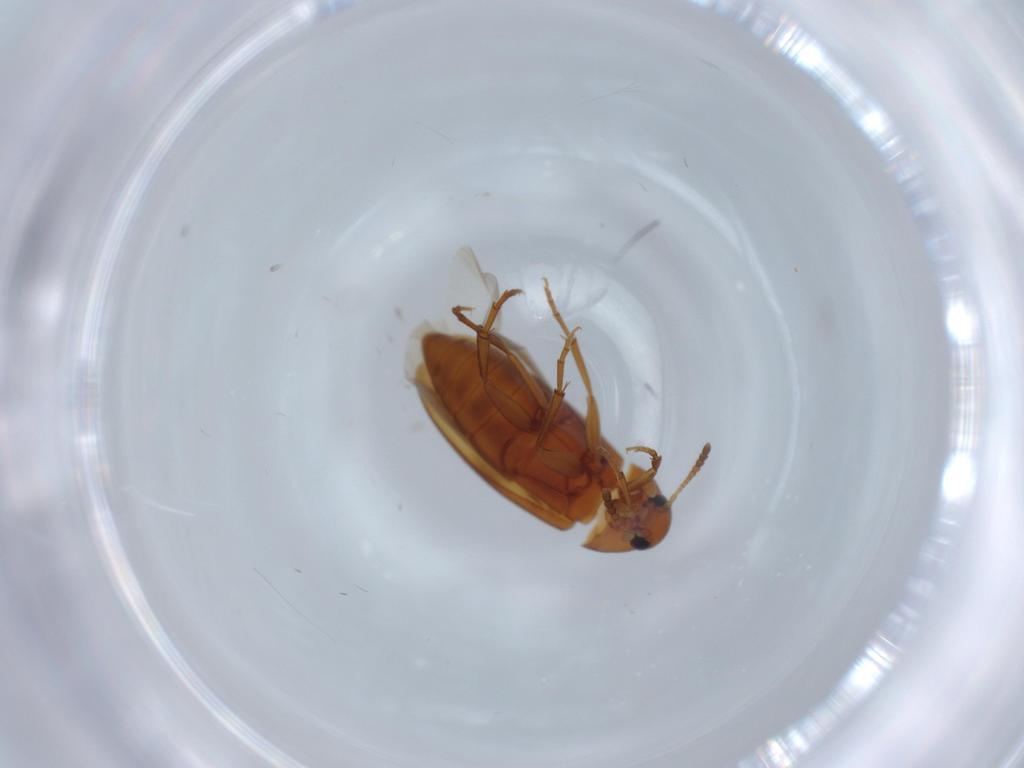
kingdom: Animalia
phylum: Arthropoda
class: Insecta
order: Coleoptera
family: Scraptiidae
